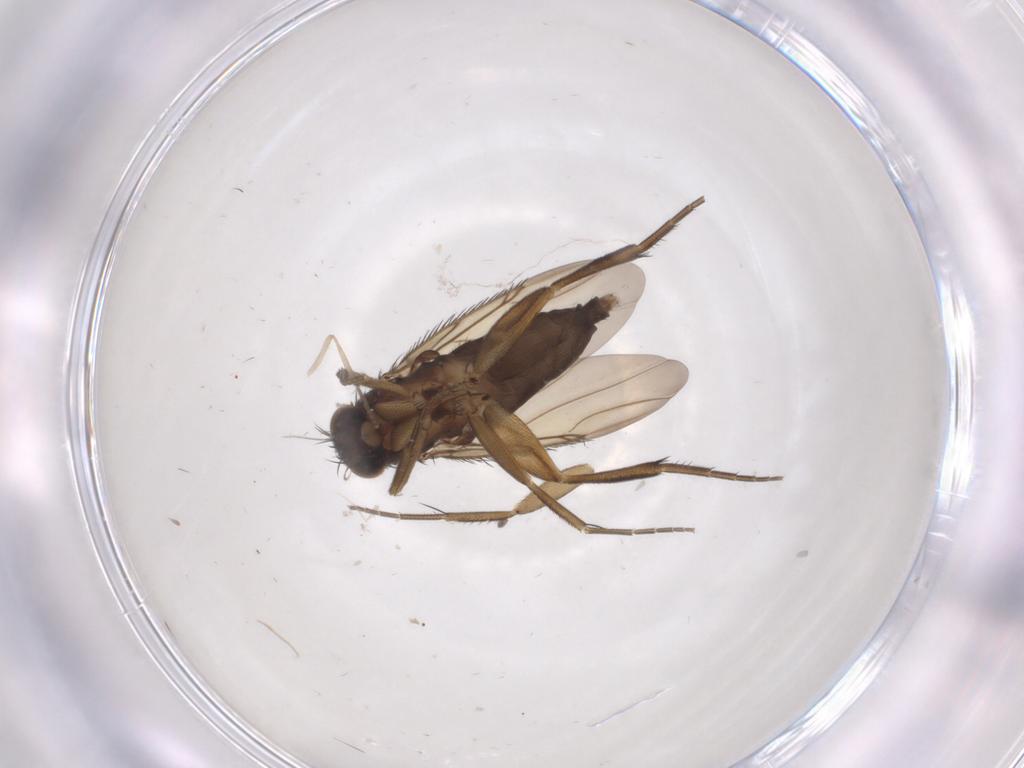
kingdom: Animalia
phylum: Arthropoda
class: Insecta
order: Diptera
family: Phoridae
